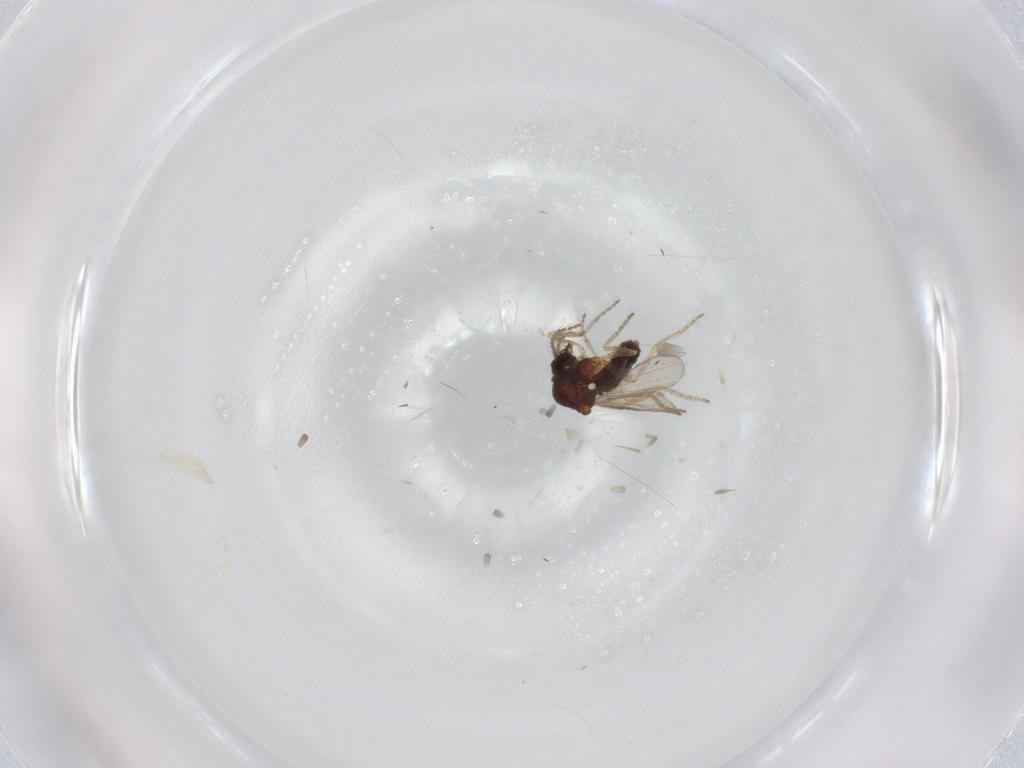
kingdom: Animalia
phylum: Arthropoda
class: Insecta
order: Diptera
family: Ceratopogonidae
